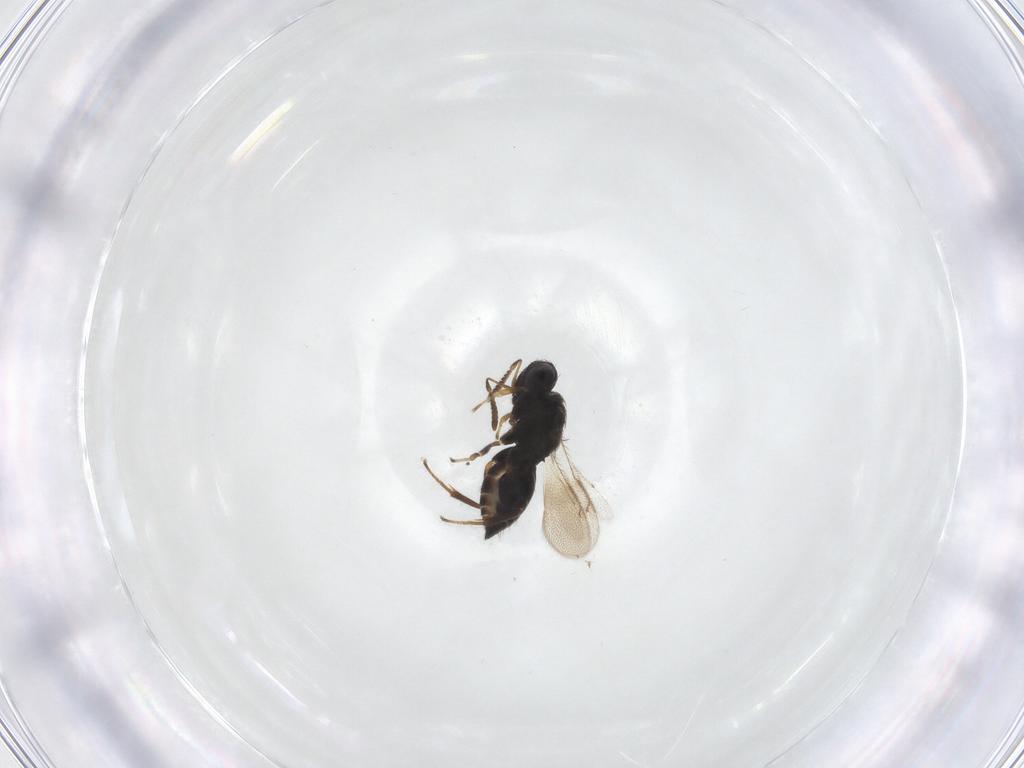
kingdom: Animalia
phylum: Arthropoda
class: Insecta
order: Hymenoptera
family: Pteromalidae
